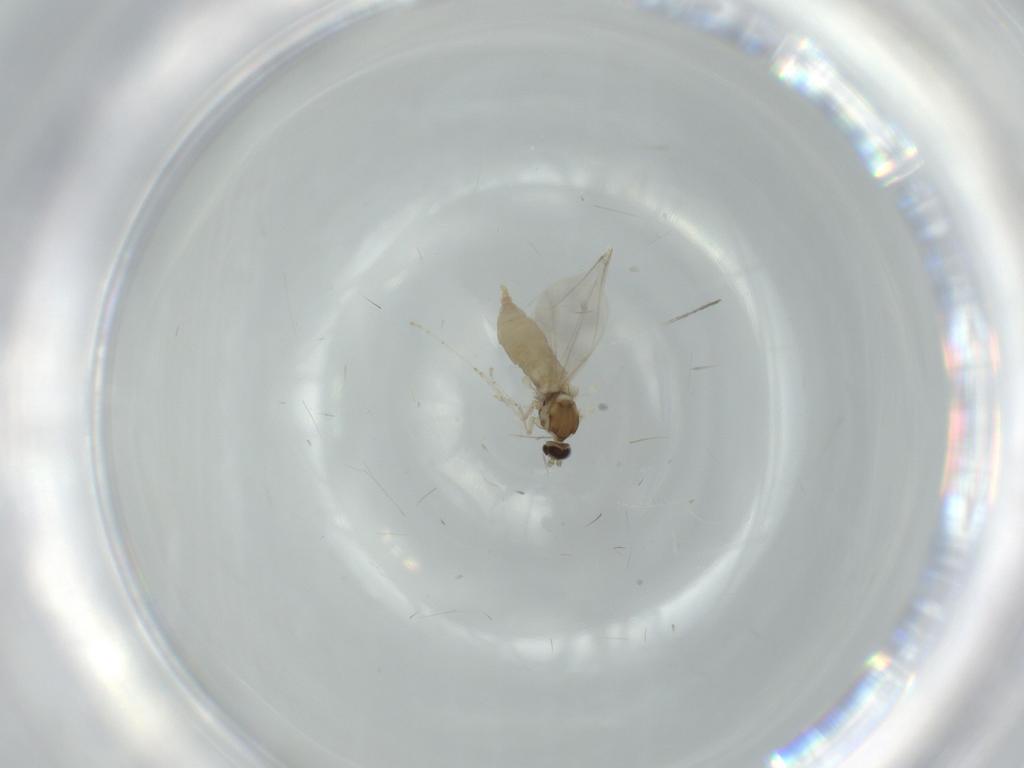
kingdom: Animalia
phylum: Arthropoda
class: Insecta
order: Diptera
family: Cecidomyiidae
